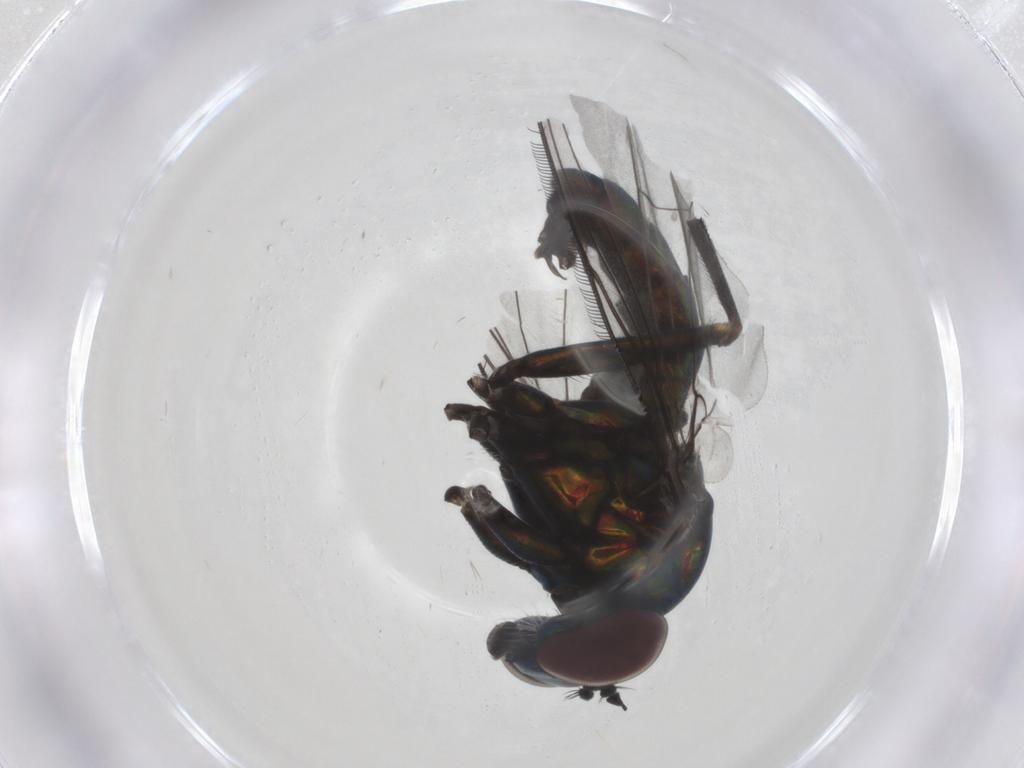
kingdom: Animalia
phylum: Arthropoda
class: Insecta
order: Diptera
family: Dolichopodidae
